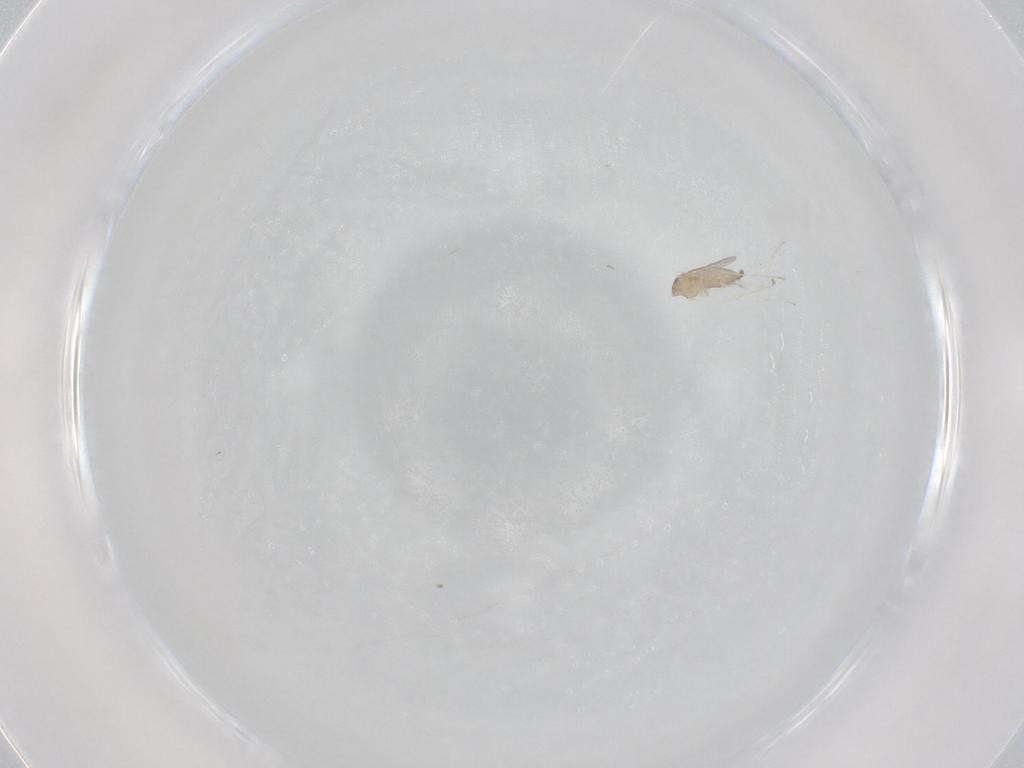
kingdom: Animalia
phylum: Arthropoda
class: Insecta
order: Diptera
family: Cecidomyiidae
